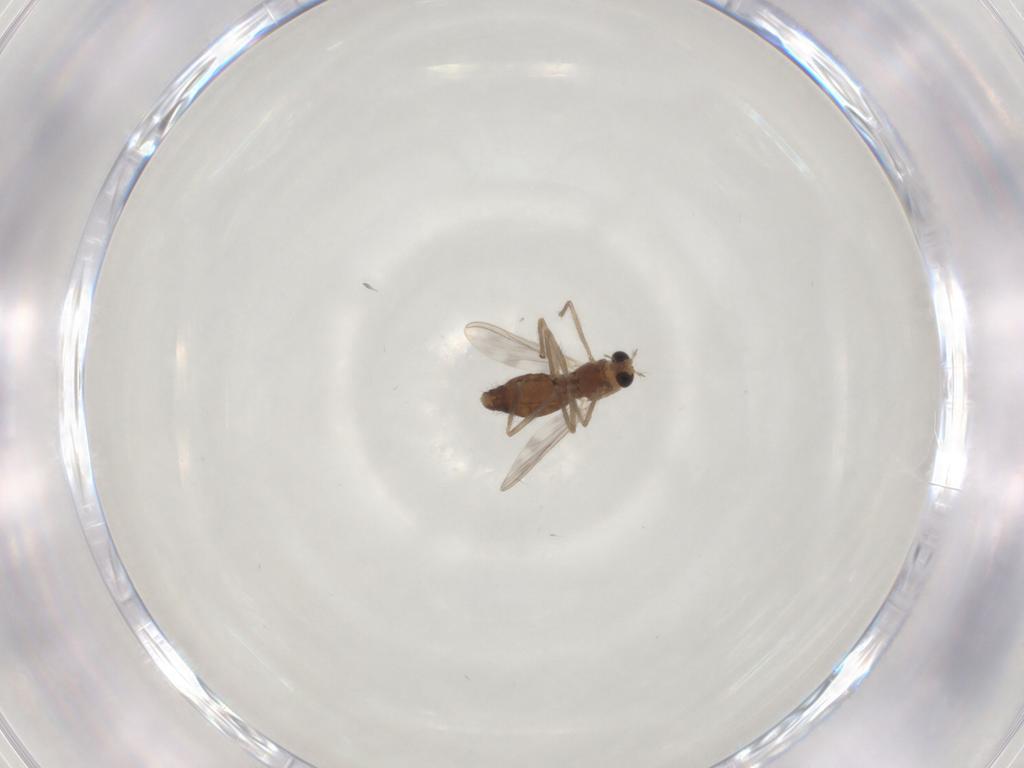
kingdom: Animalia
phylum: Arthropoda
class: Insecta
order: Diptera
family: Chironomidae
